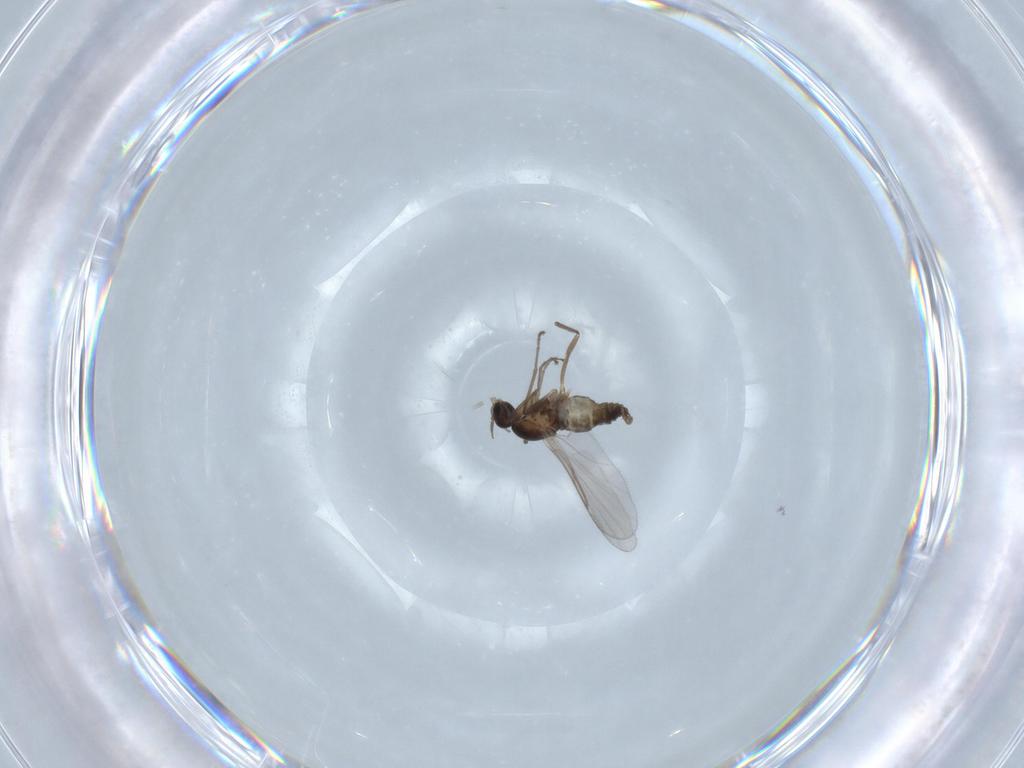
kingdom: Animalia
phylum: Arthropoda
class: Insecta
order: Diptera
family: Cecidomyiidae
